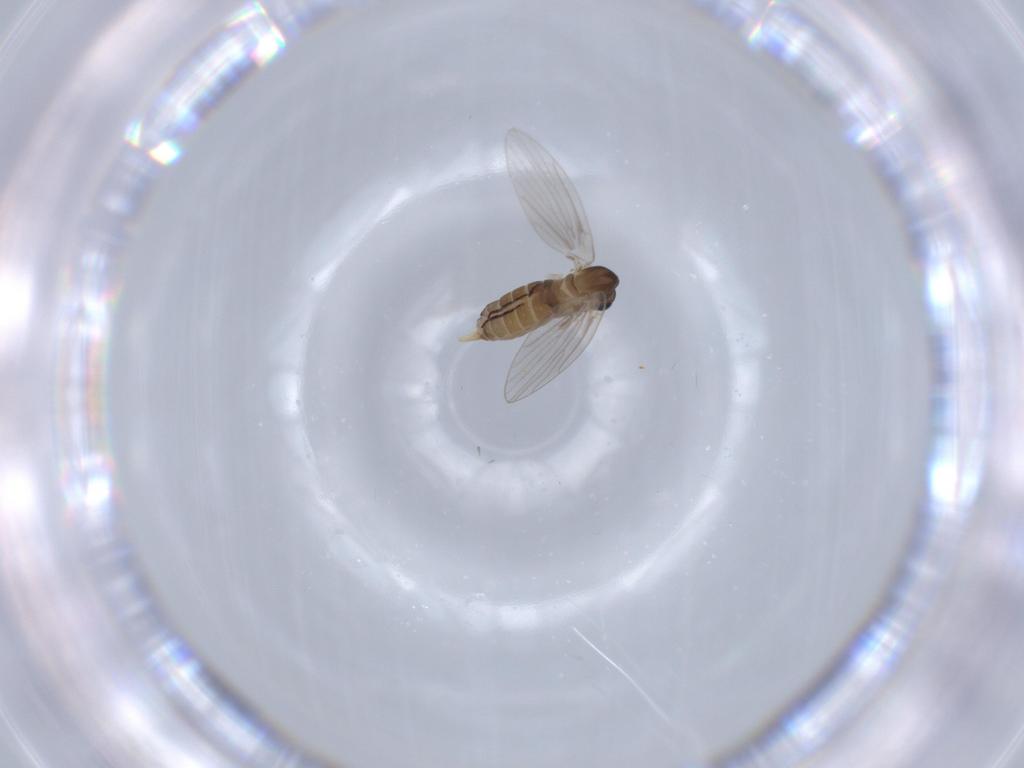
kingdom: Animalia
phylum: Arthropoda
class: Insecta
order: Diptera
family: Psychodidae
